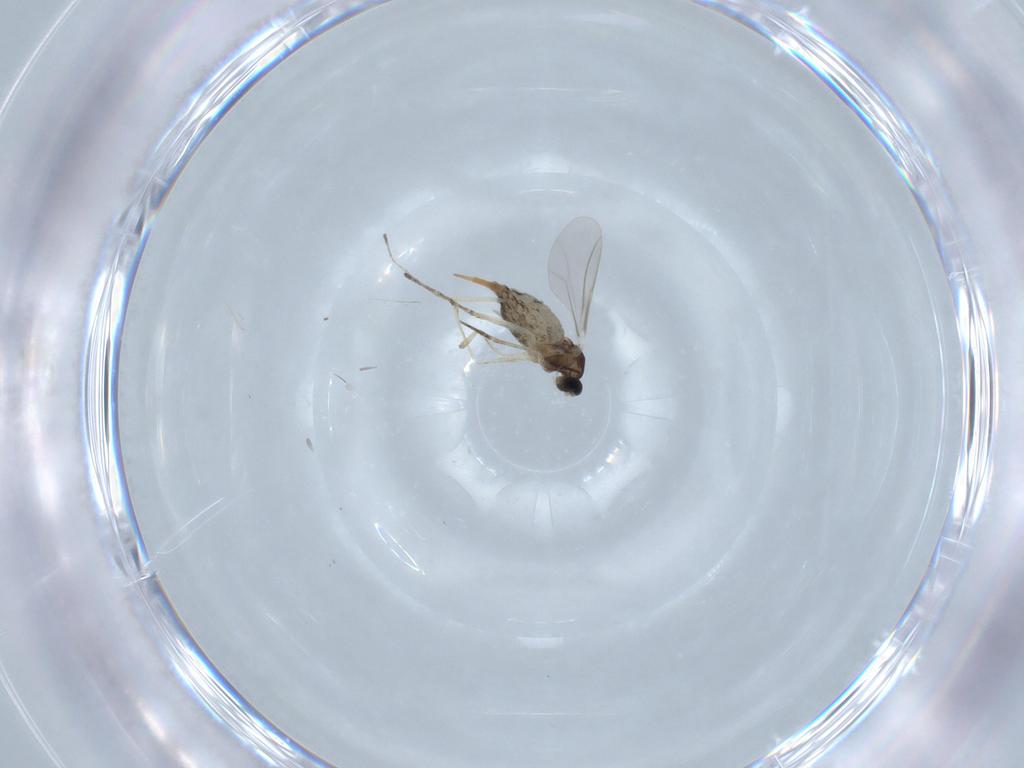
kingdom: Animalia
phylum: Arthropoda
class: Insecta
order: Diptera
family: Cecidomyiidae
